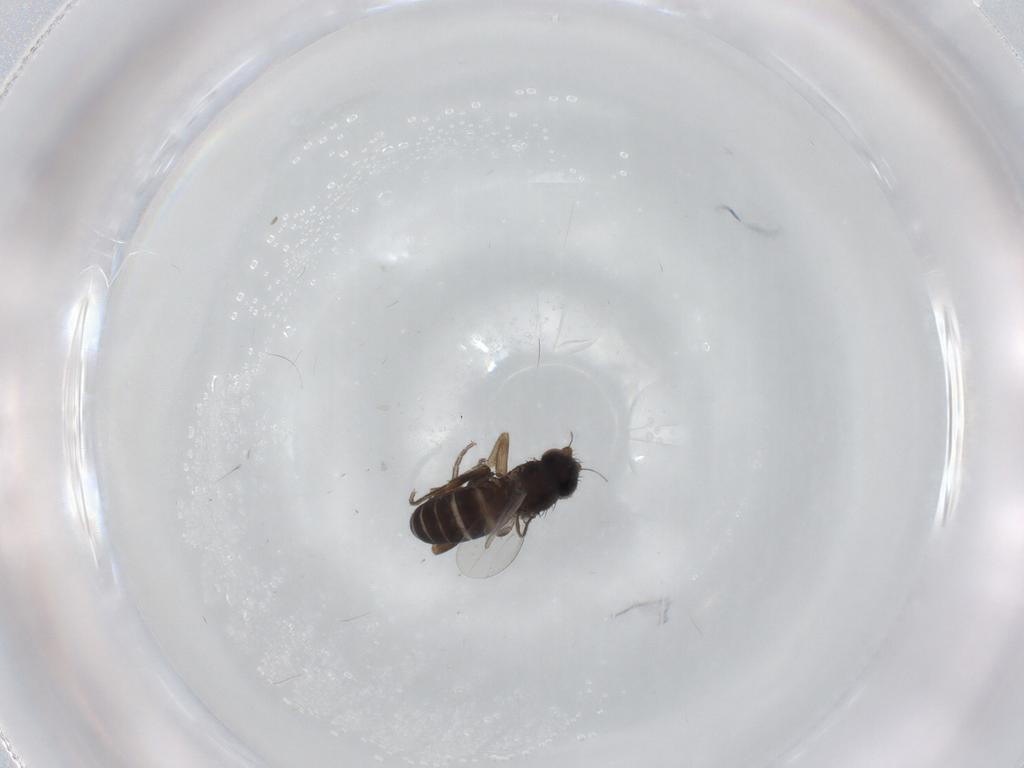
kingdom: Animalia
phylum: Arthropoda
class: Insecta
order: Diptera
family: Phoridae
